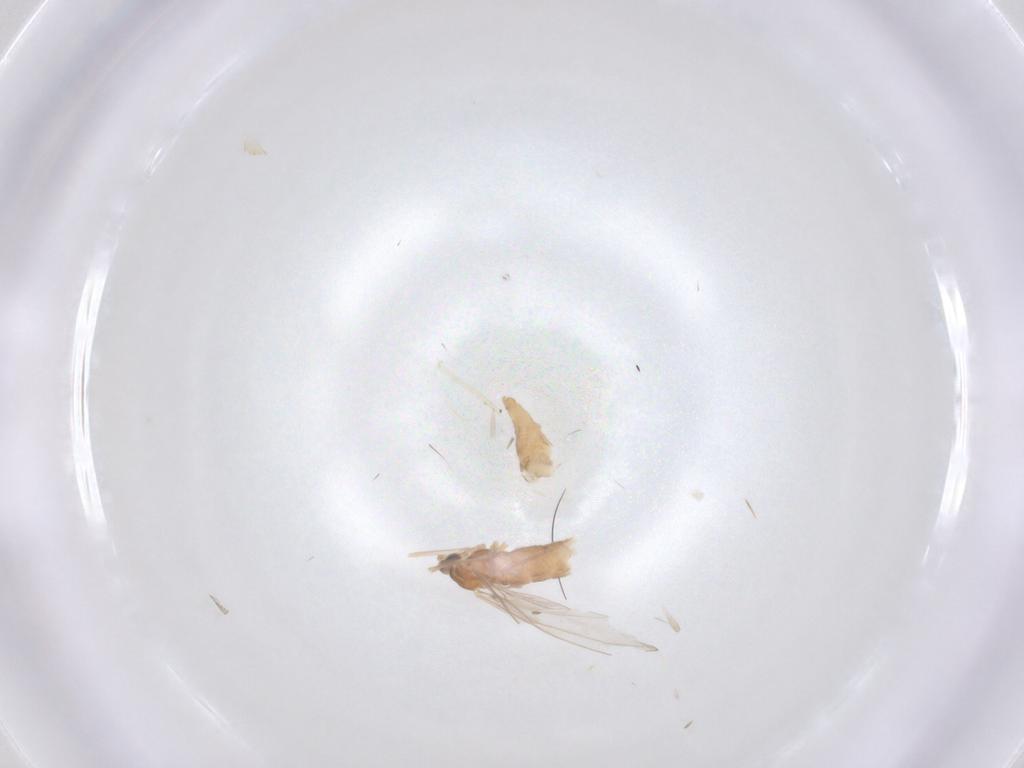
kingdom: Animalia
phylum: Arthropoda
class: Insecta
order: Diptera
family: Cecidomyiidae
